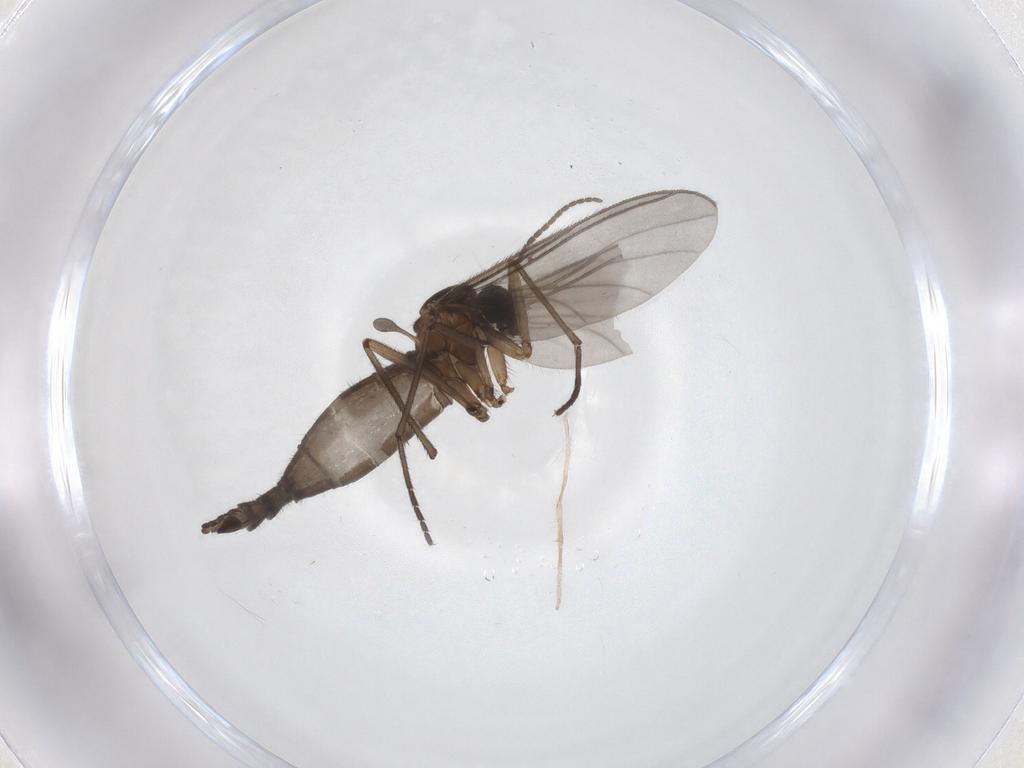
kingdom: Animalia
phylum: Arthropoda
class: Insecta
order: Diptera
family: Sciaridae
